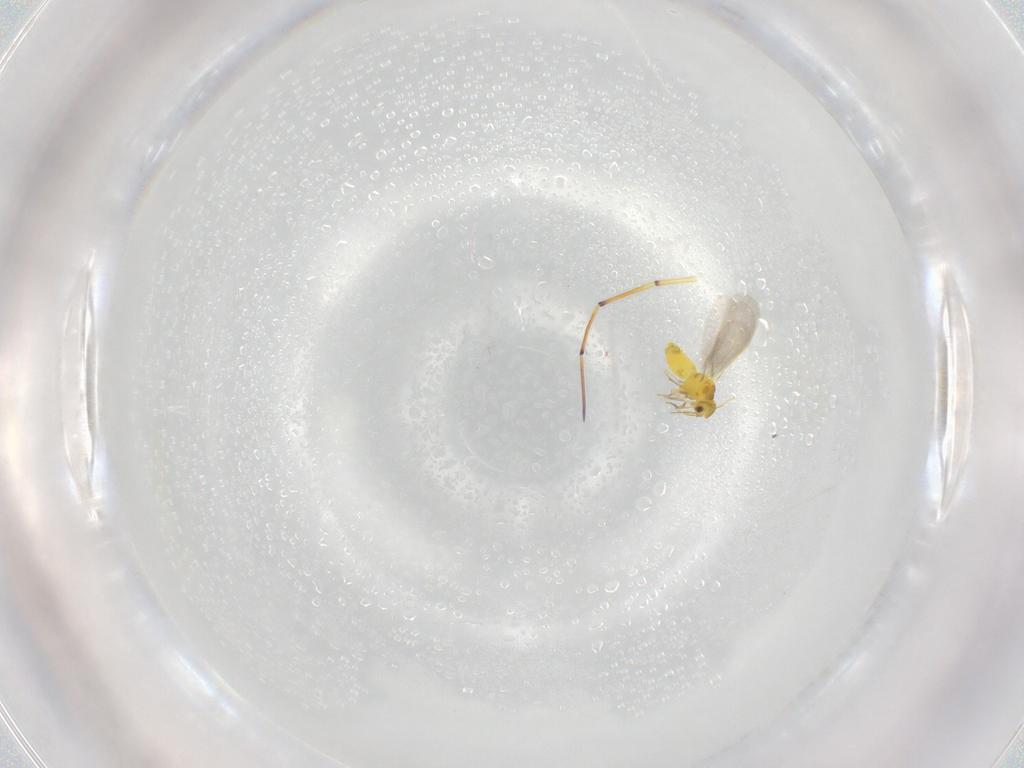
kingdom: Animalia
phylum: Arthropoda
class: Insecta
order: Hemiptera
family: Aleyrodidae
